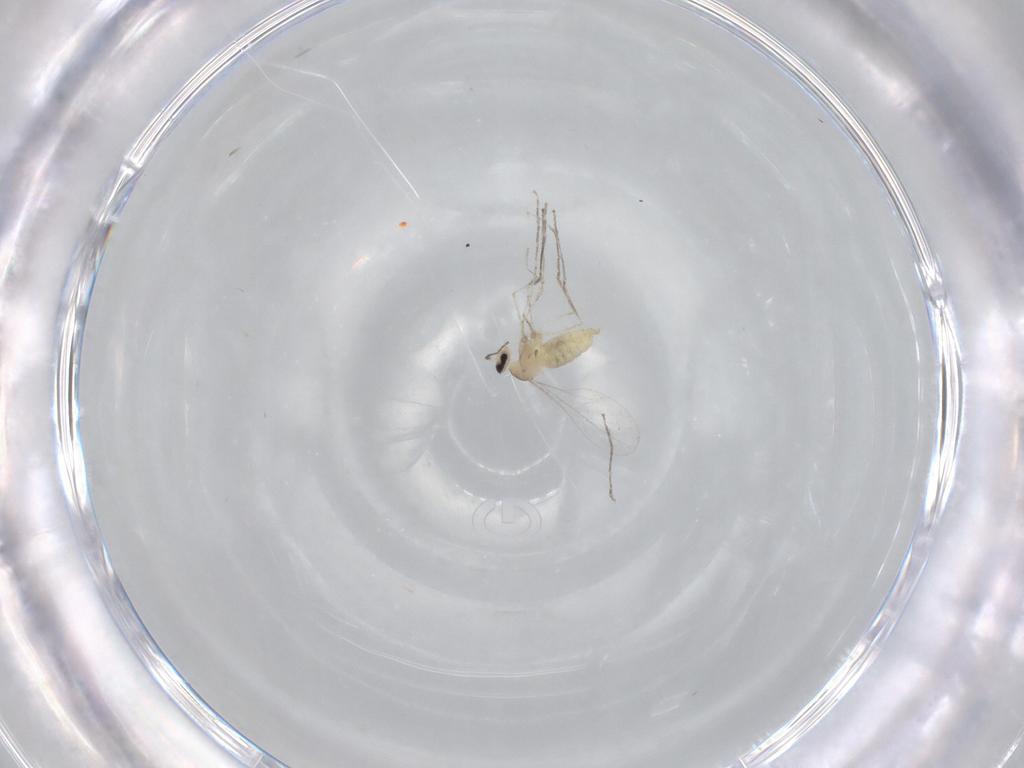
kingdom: Animalia
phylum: Arthropoda
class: Insecta
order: Diptera
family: Cecidomyiidae
